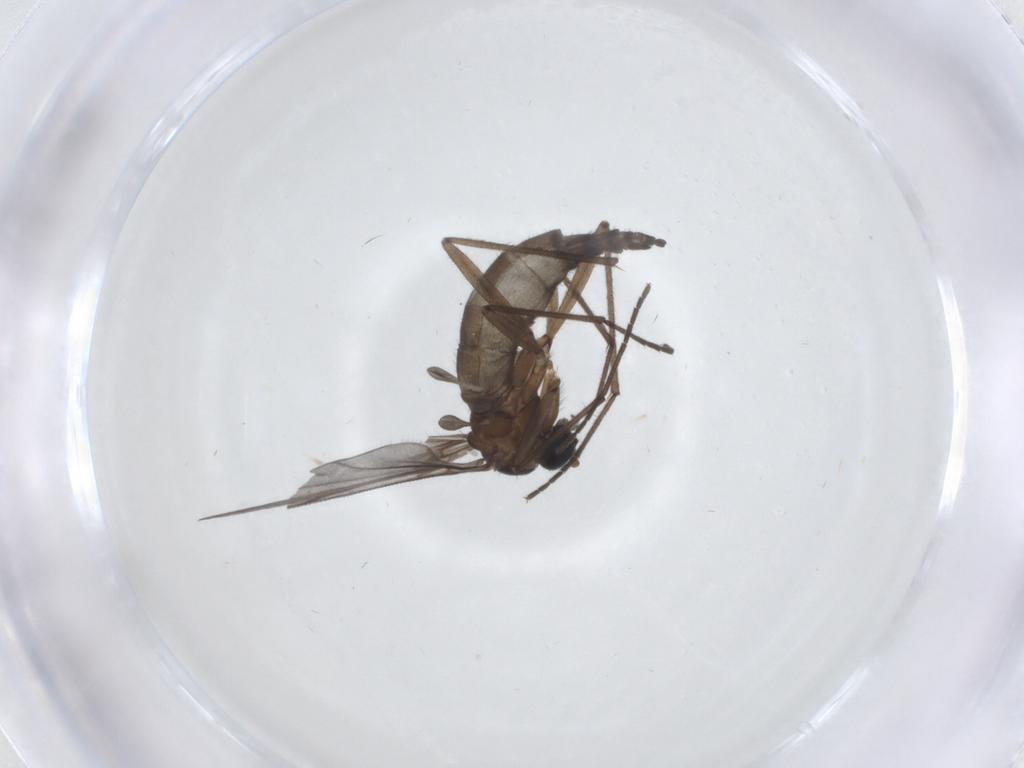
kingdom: Animalia
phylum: Arthropoda
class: Insecta
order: Diptera
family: Sciaridae
